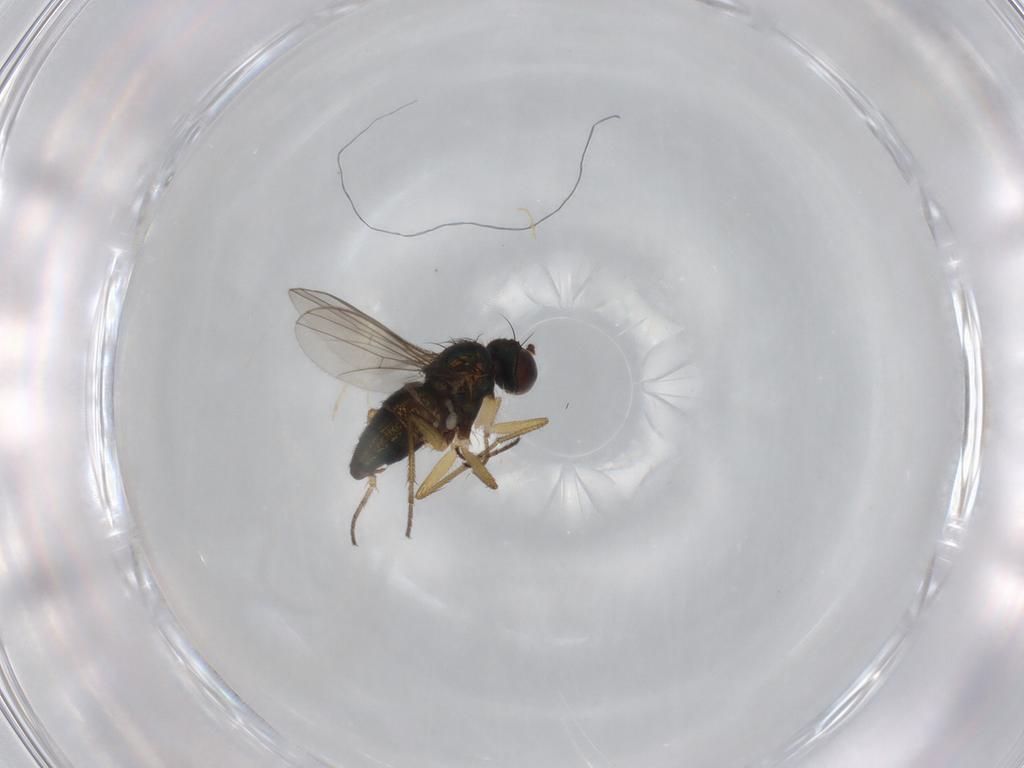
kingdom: Animalia
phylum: Arthropoda
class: Insecta
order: Diptera
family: Dolichopodidae
